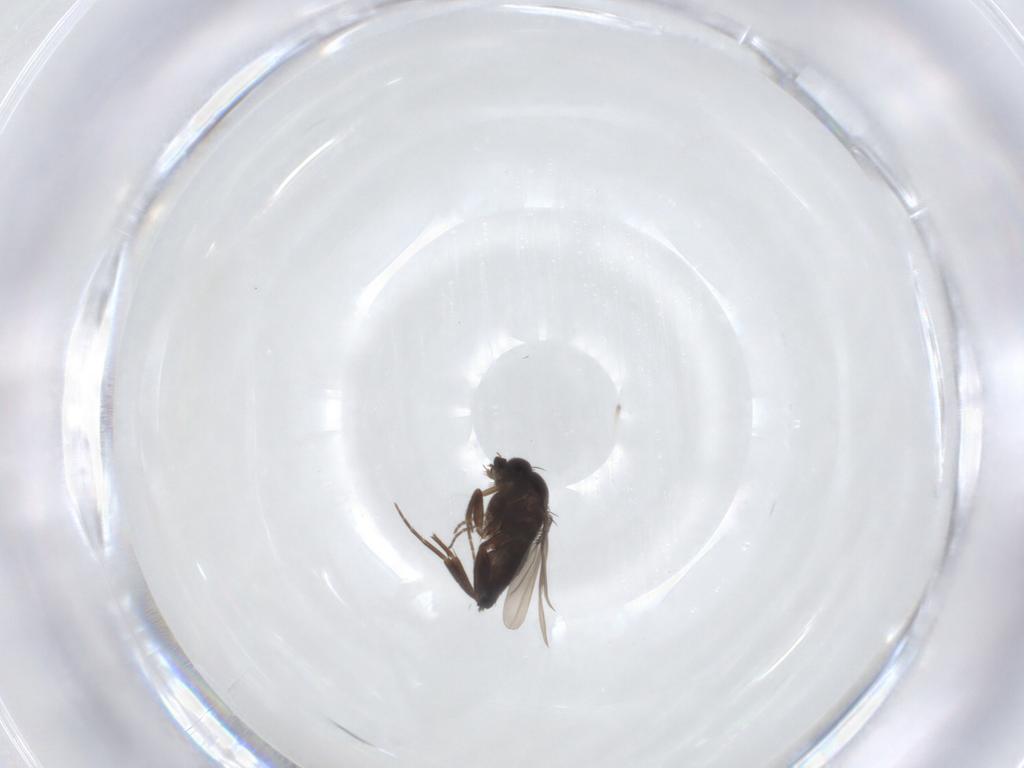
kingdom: Animalia
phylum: Arthropoda
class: Insecta
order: Diptera
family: Phoridae
